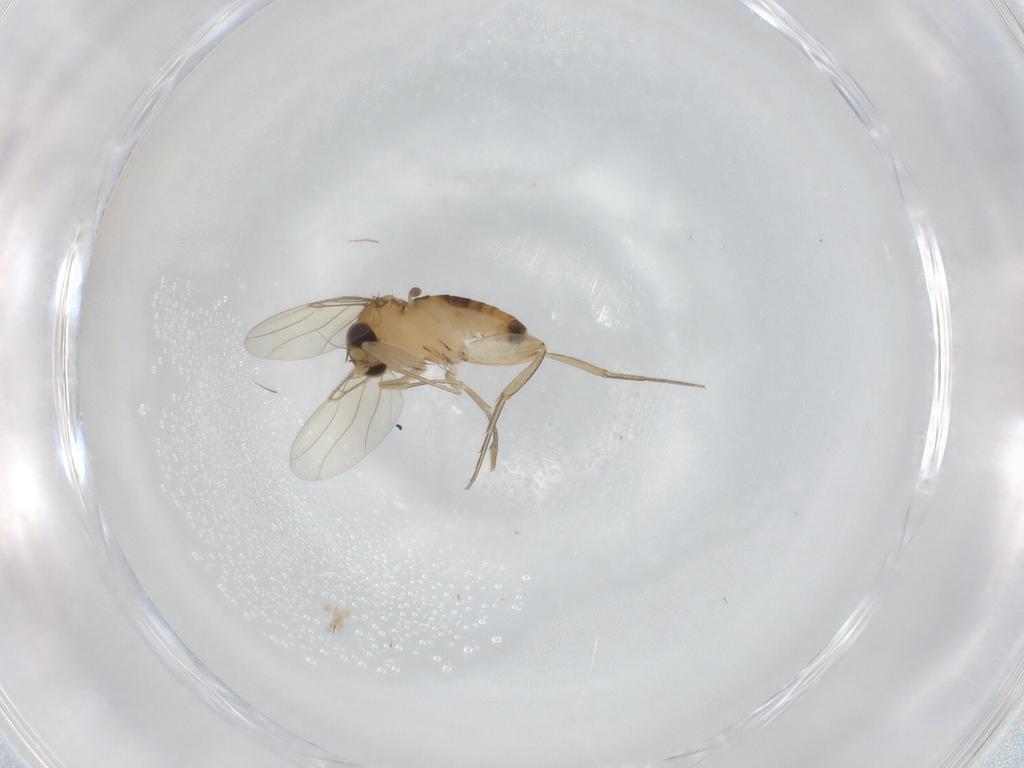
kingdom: Animalia
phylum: Arthropoda
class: Insecta
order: Diptera
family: Phoridae
